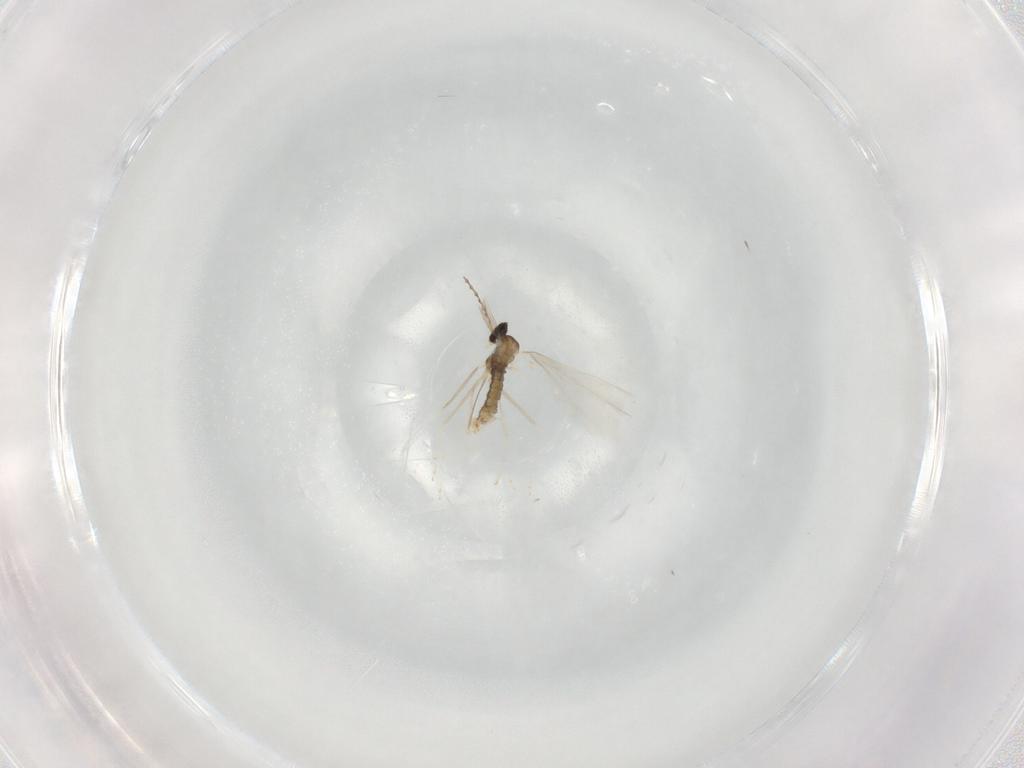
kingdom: Animalia
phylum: Arthropoda
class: Insecta
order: Diptera
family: Cecidomyiidae
